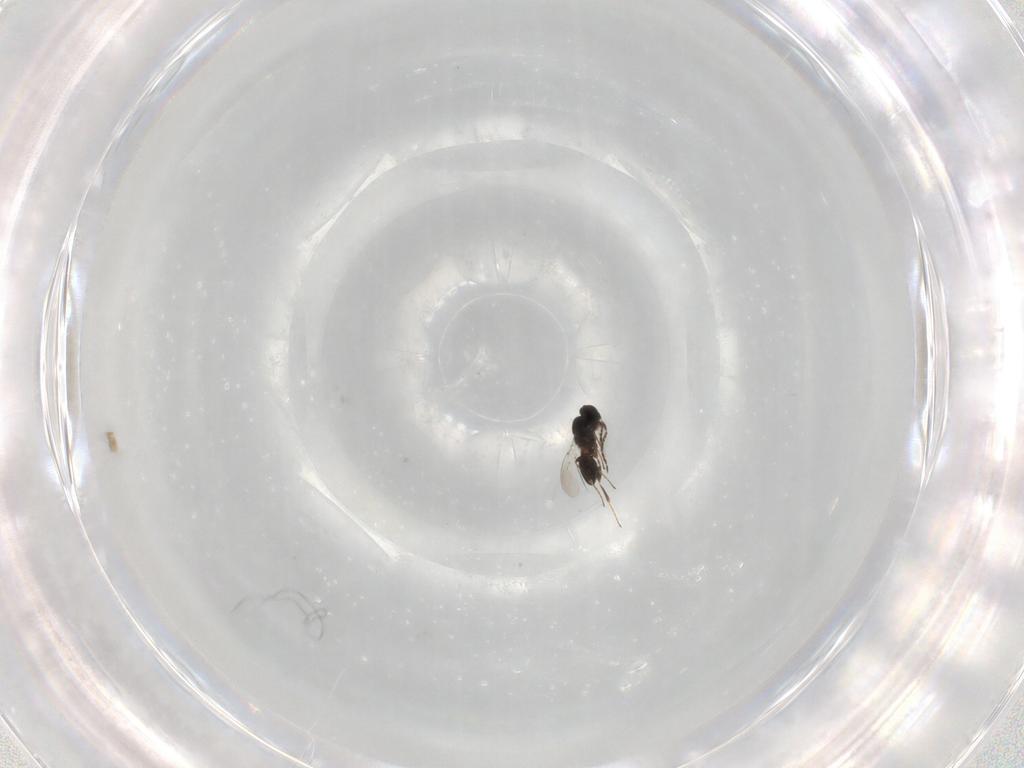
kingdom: Animalia
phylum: Arthropoda
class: Insecta
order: Hymenoptera
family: Platygastridae
